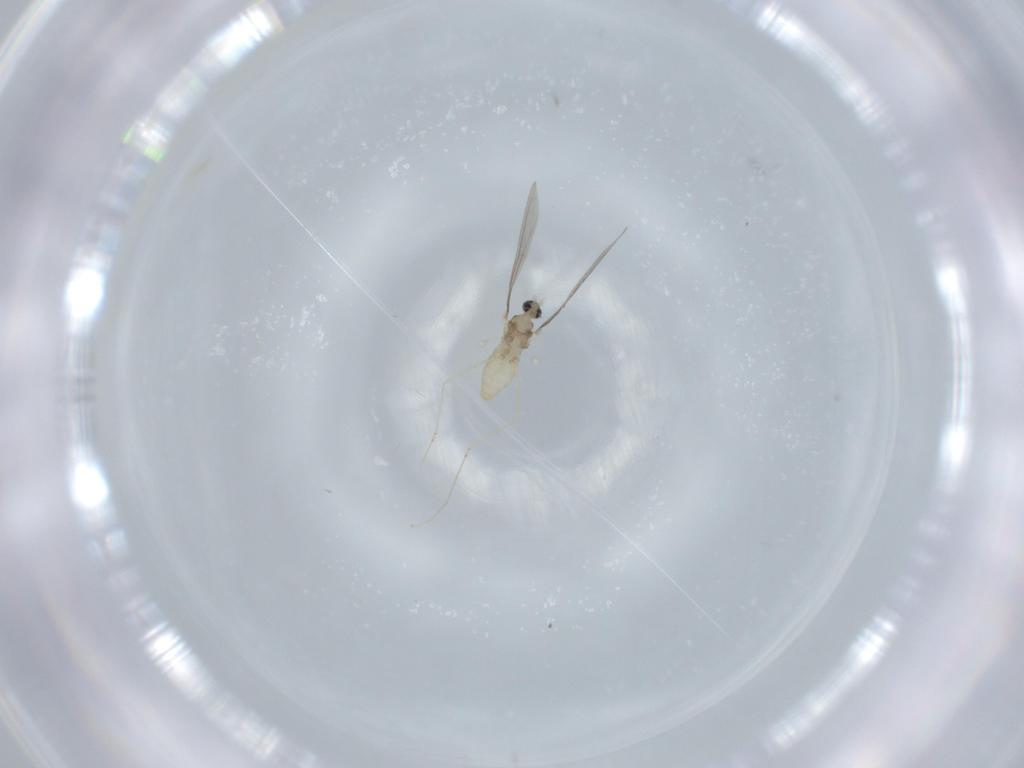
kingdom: Animalia
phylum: Arthropoda
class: Insecta
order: Diptera
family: Cecidomyiidae
